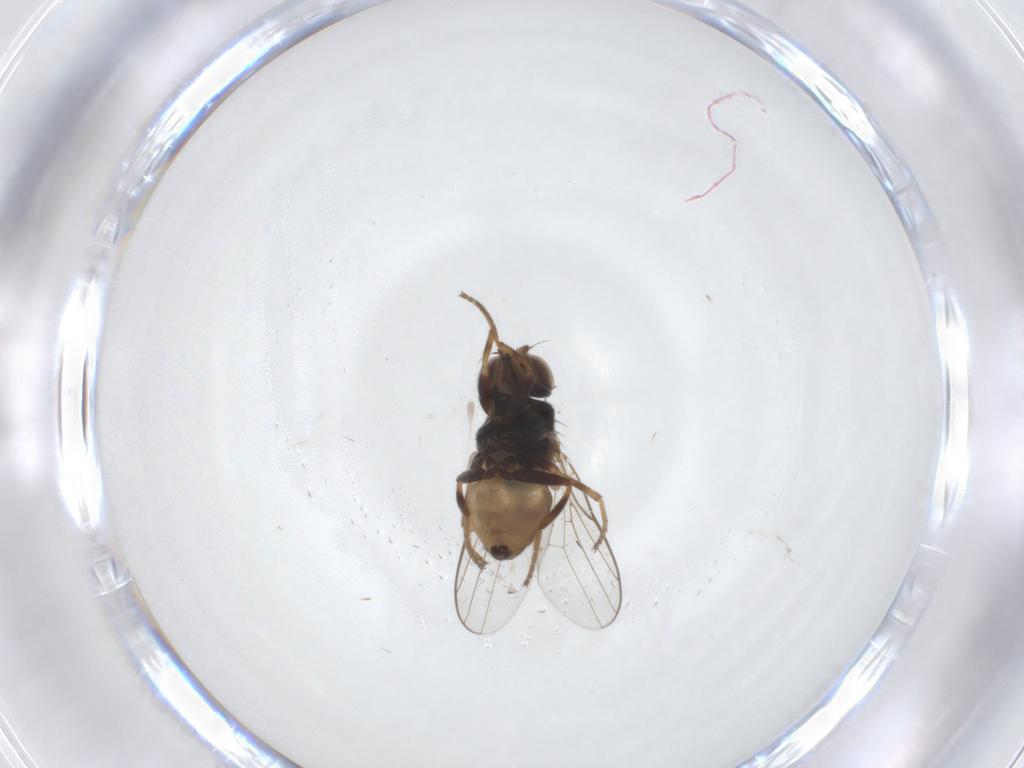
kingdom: Animalia
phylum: Arthropoda
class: Insecta
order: Diptera
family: Chloropidae
